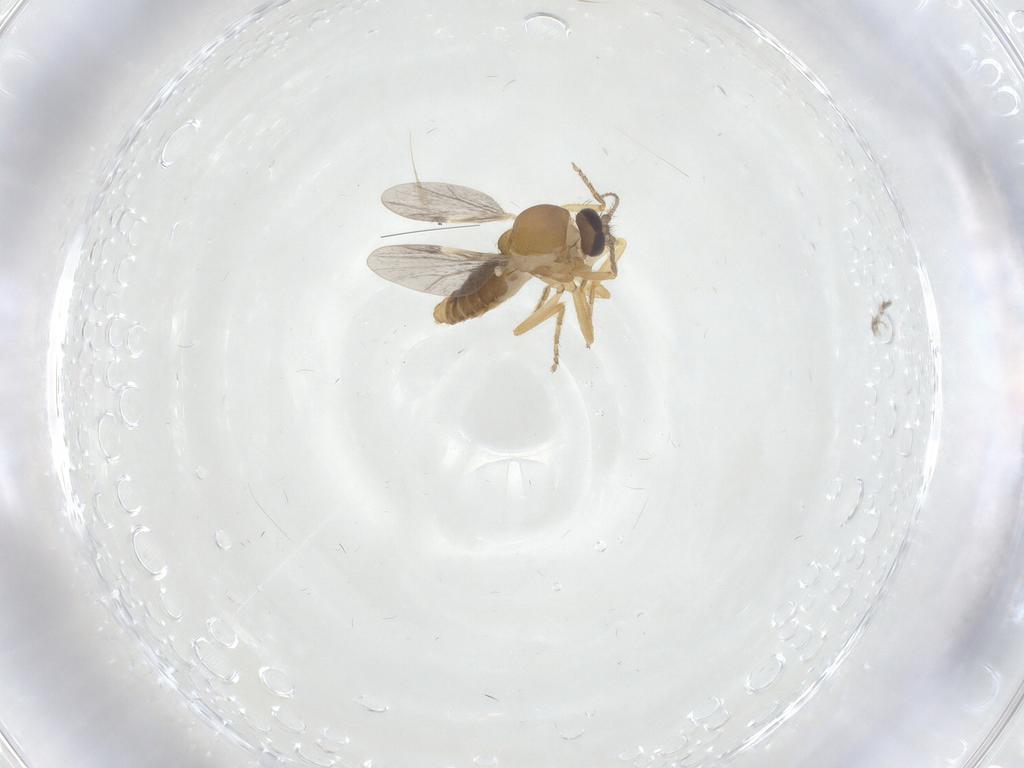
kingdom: Animalia
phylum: Arthropoda
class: Insecta
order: Diptera
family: Ceratopogonidae
